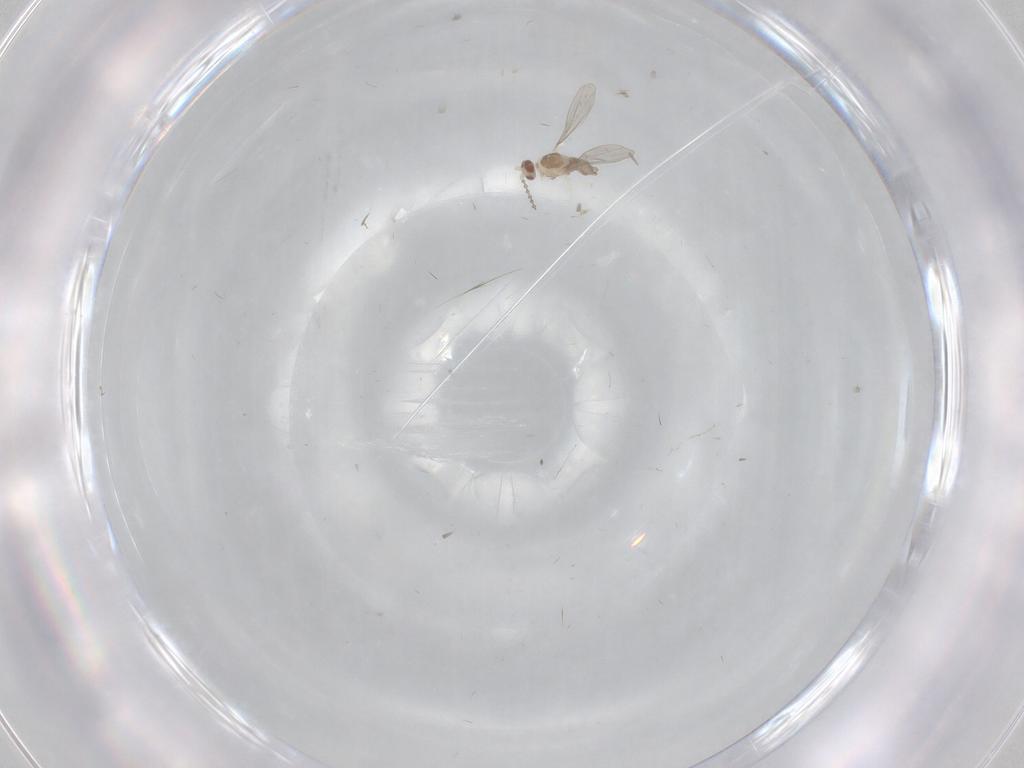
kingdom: Animalia
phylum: Arthropoda
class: Insecta
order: Diptera
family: Cecidomyiidae
